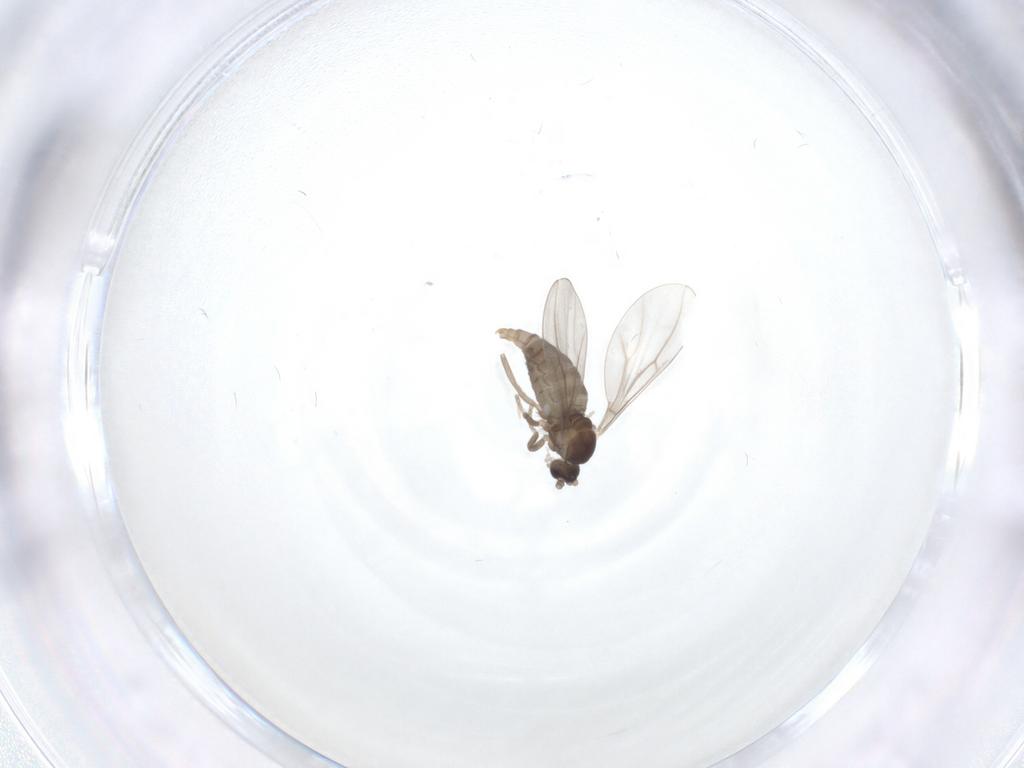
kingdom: Animalia
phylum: Arthropoda
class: Insecta
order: Diptera
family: Cecidomyiidae
